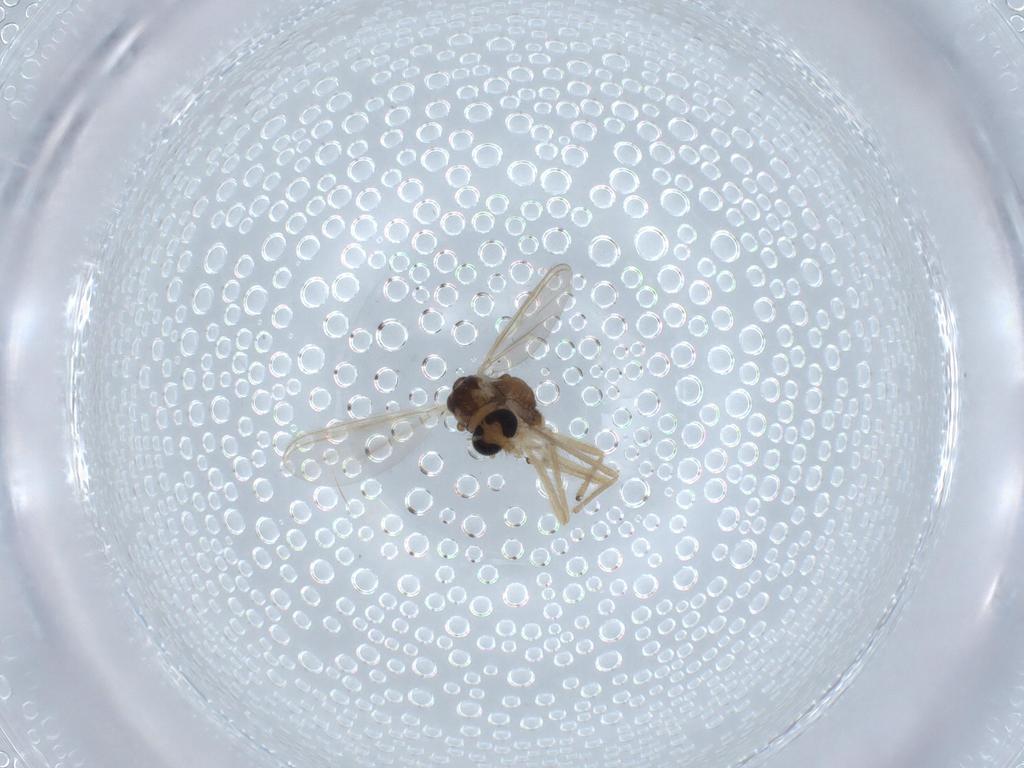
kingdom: Animalia
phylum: Arthropoda
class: Insecta
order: Diptera
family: Chironomidae
